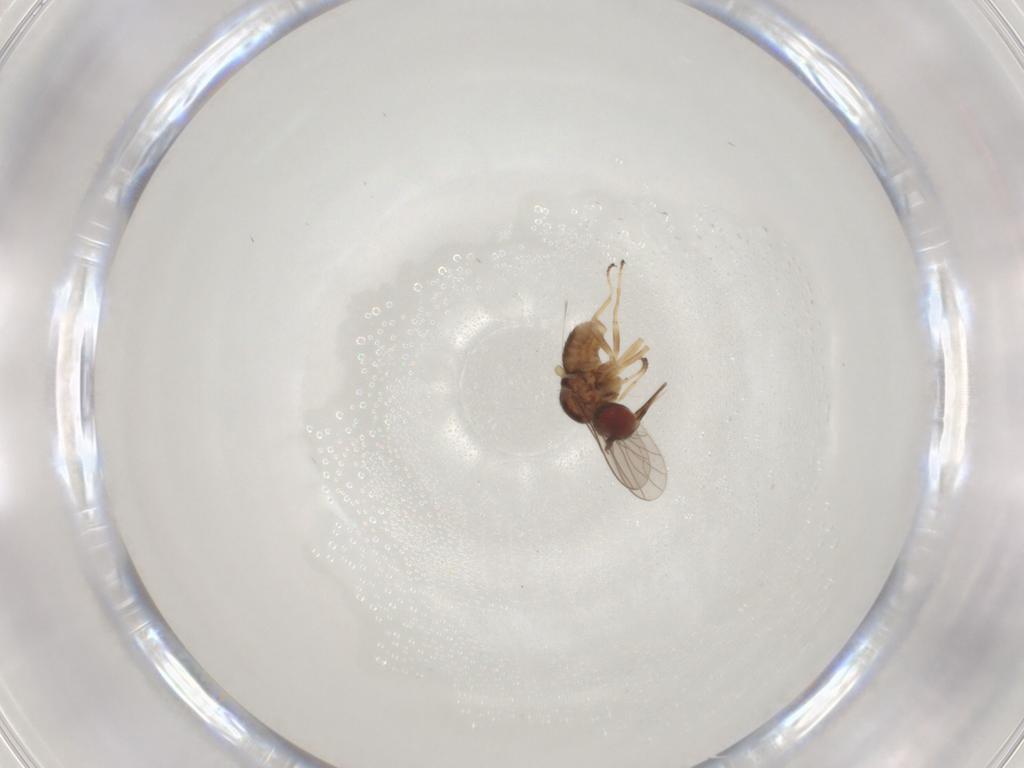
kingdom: Animalia
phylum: Arthropoda
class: Insecta
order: Diptera
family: Bombyliidae
